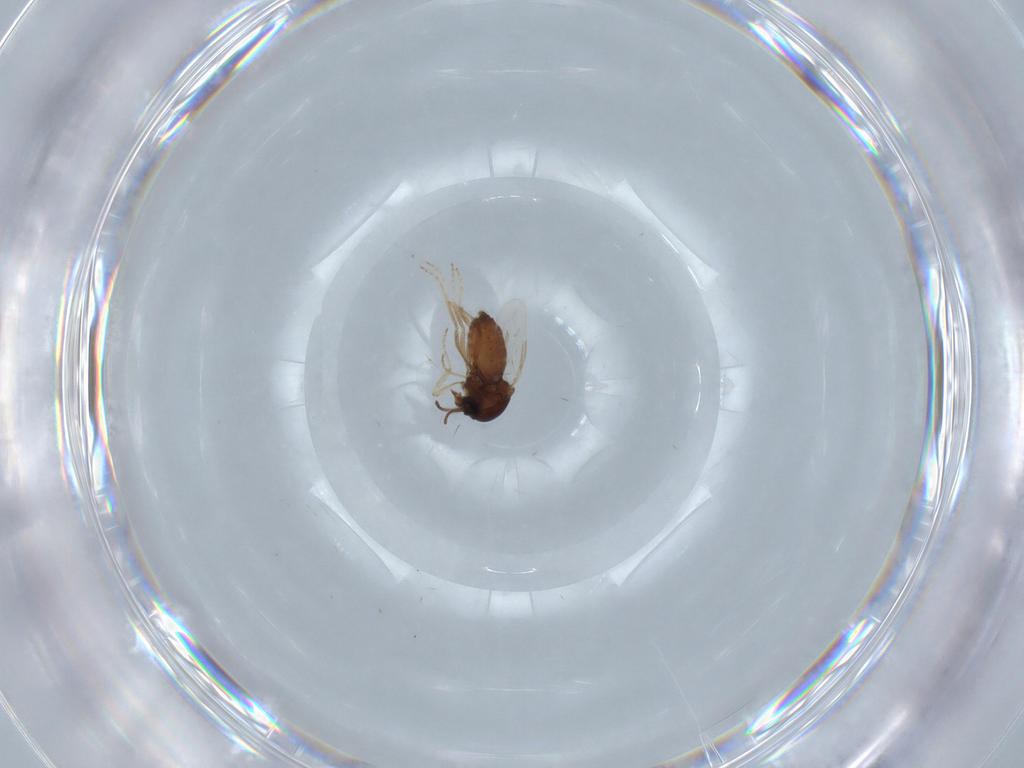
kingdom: Animalia
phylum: Arthropoda
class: Insecta
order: Diptera
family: Ceratopogonidae
